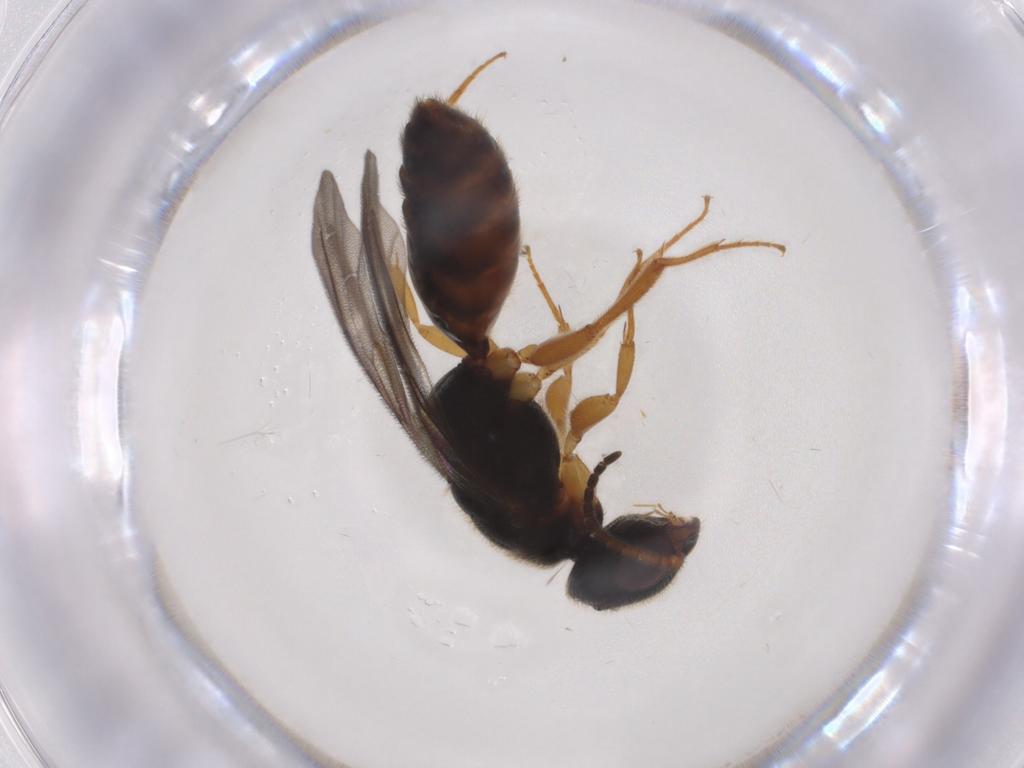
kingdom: Animalia
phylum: Arthropoda
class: Insecta
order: Hymenoptera
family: Bethylidae
